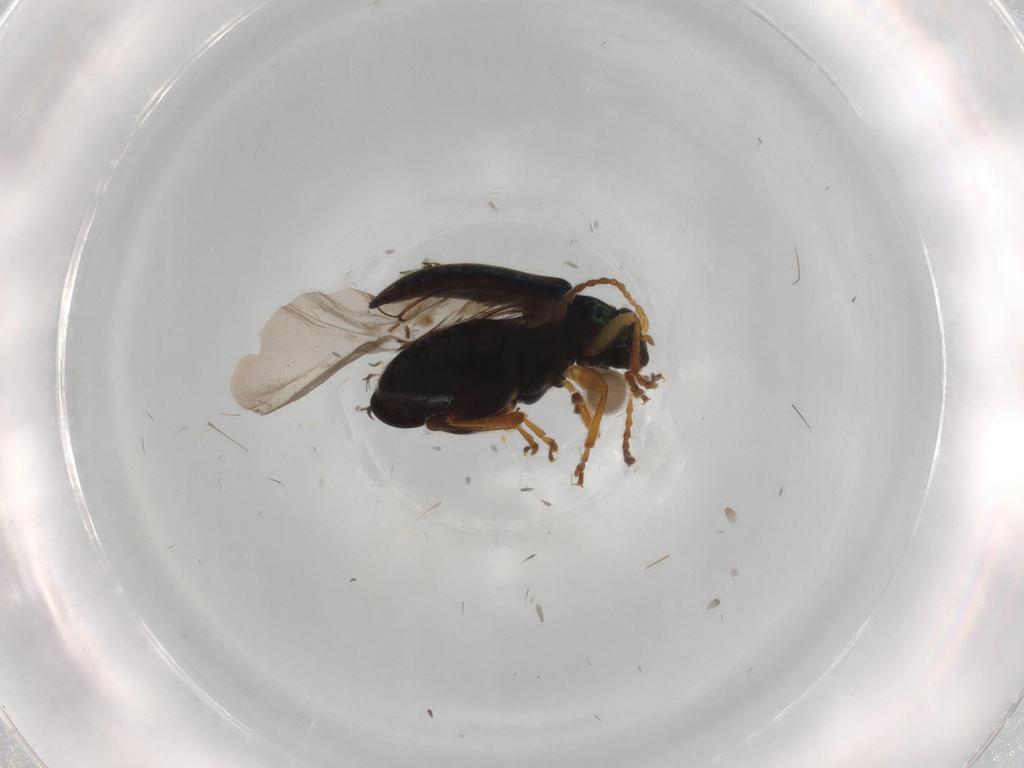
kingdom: Animalia
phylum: Arthropoda
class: Insecta
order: Coleoptera
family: Chrysomelidae
